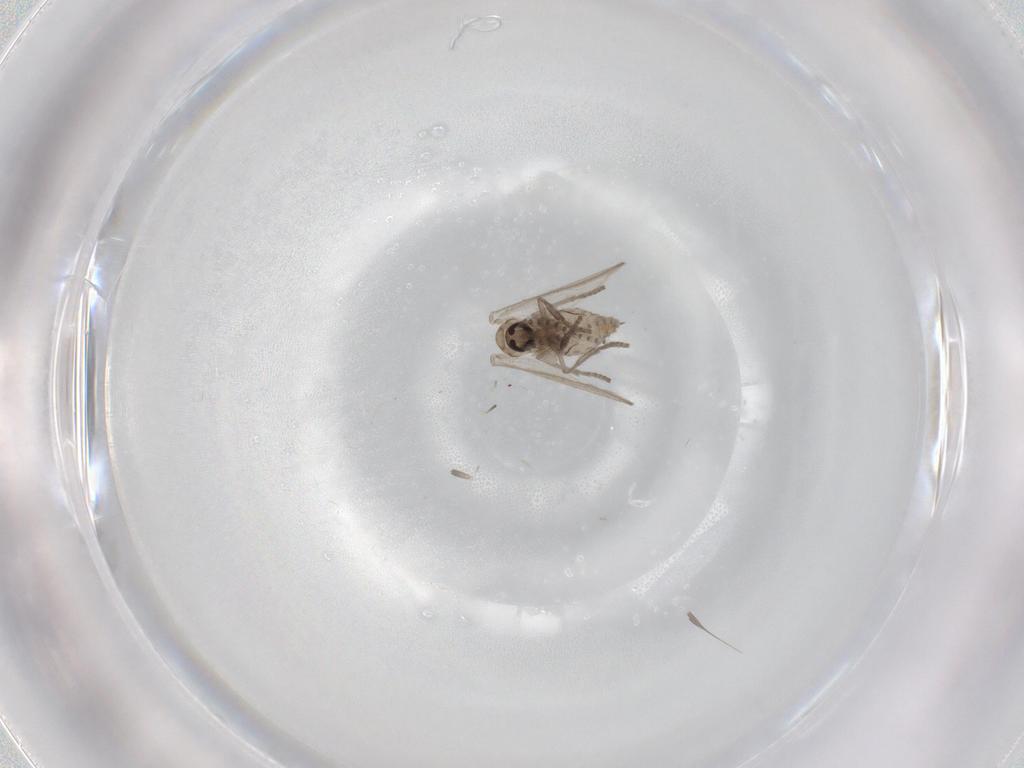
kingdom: Animalia
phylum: Arthropoda
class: Insecta
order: Diptera
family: Psychodidae
